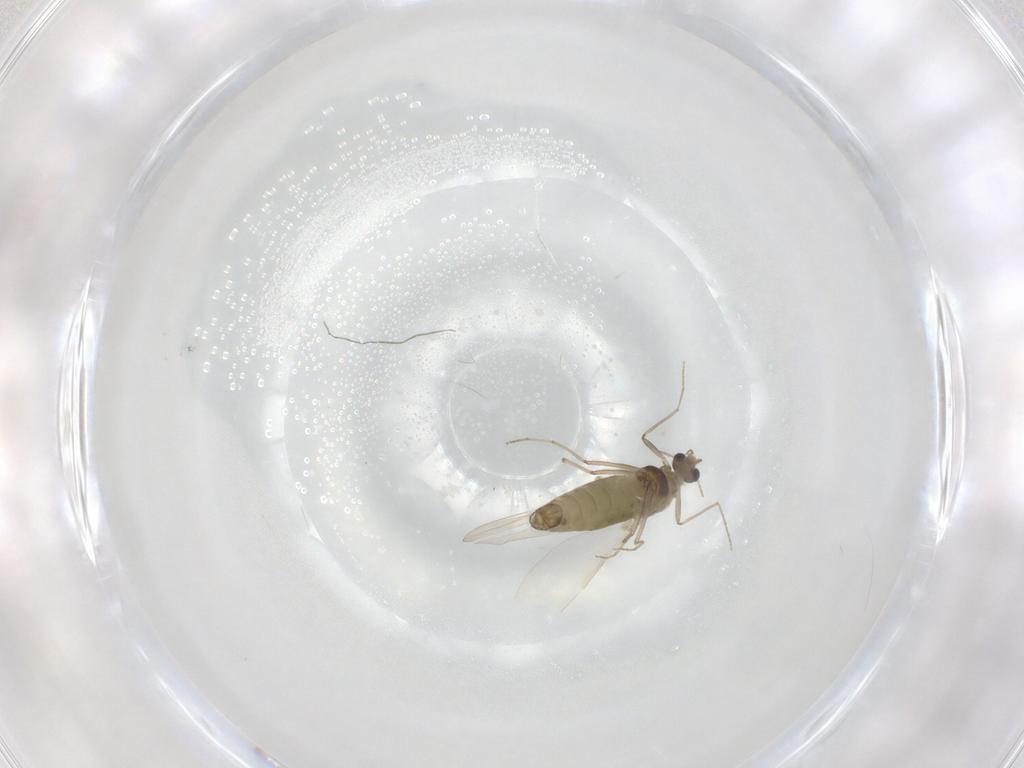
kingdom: Animalia
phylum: Arthropoda
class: Insecta
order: Diptera
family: Chironomidae
